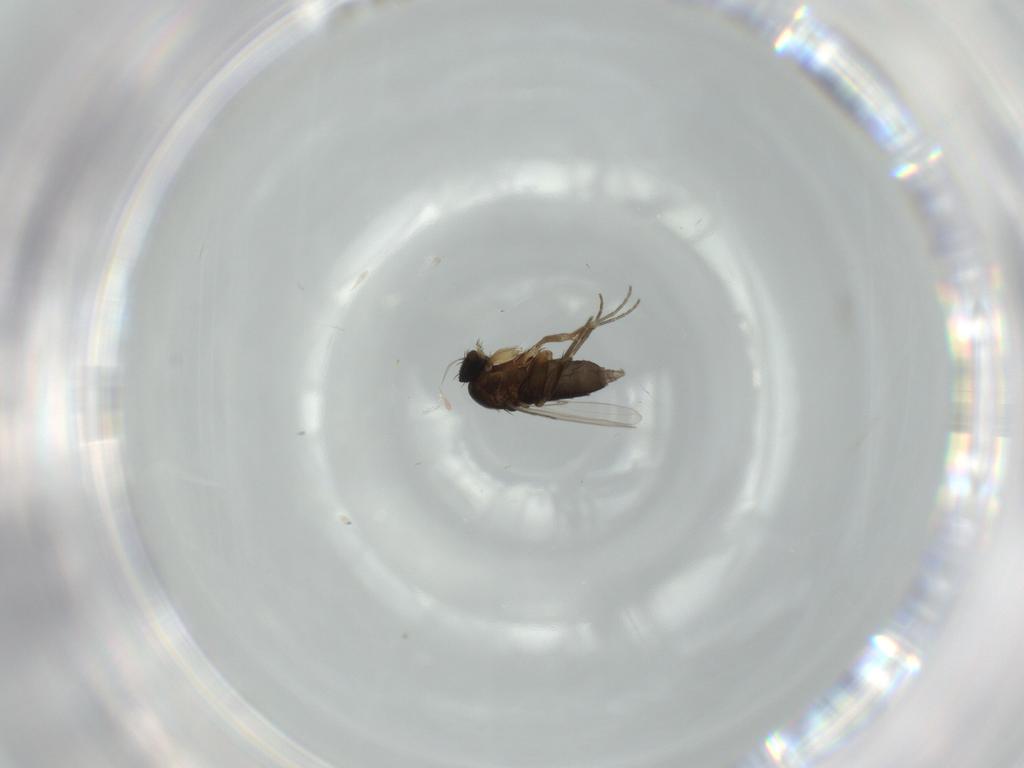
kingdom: Animalia
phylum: Arthropoda
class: Insecta
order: Diptera
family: Phoridae
